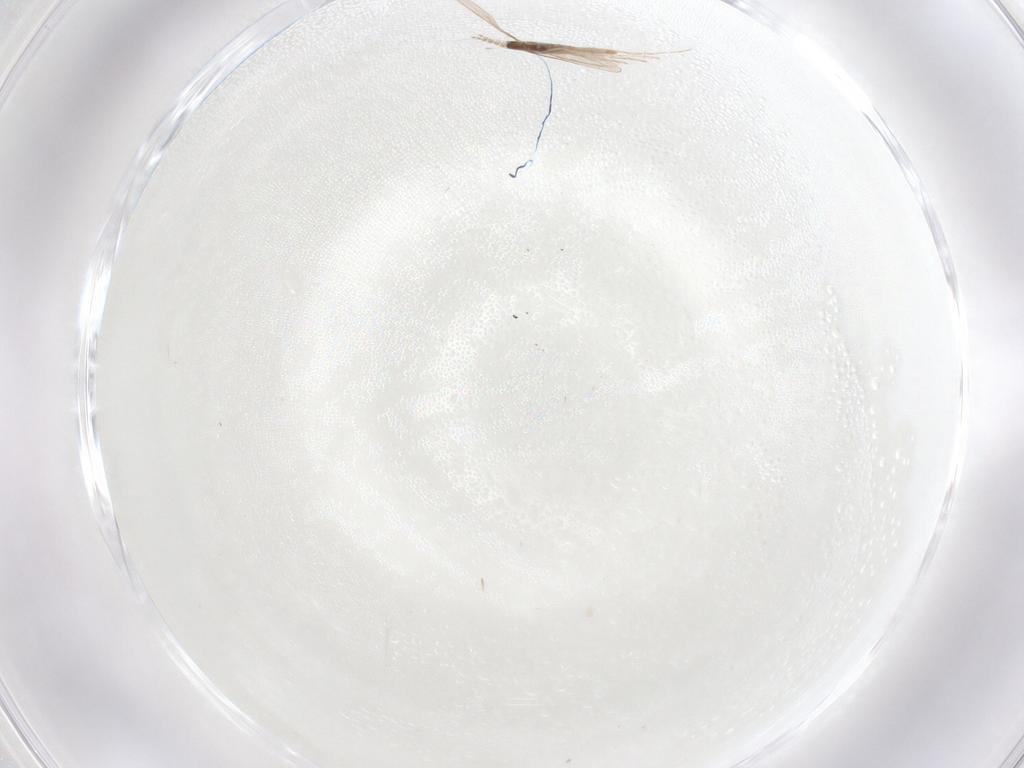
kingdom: Animalia
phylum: Arthropoda
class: Insecta
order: Diptera
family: Cecidomyiidae
